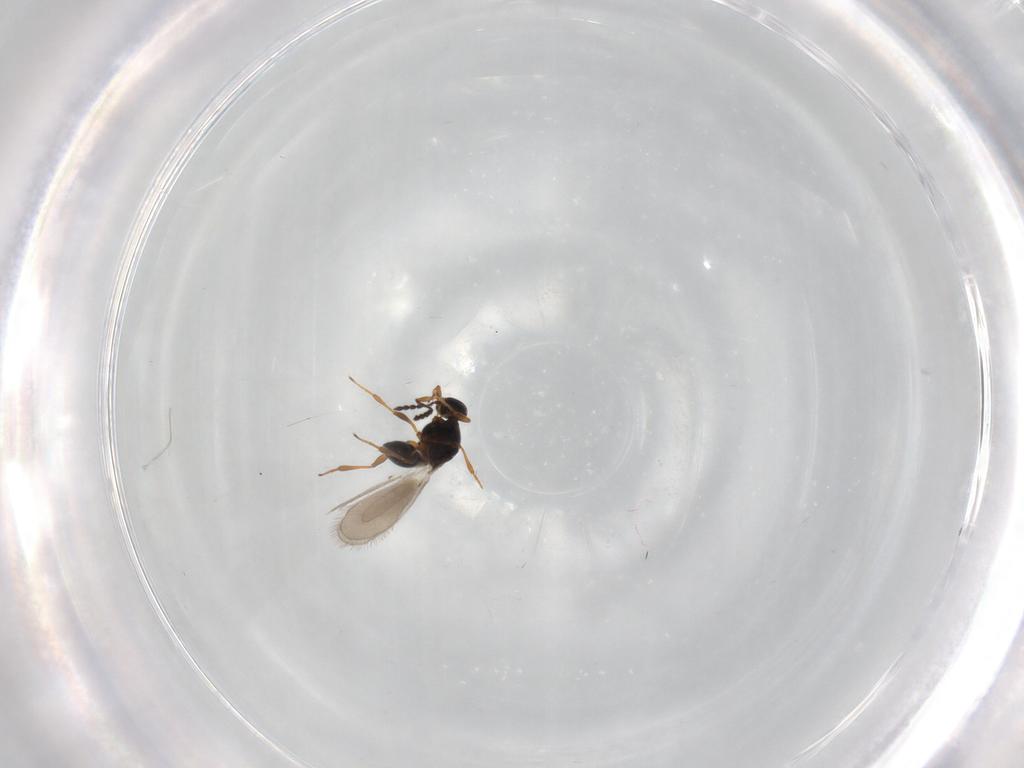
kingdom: Animalia
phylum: Arthropoda
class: Insecta
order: Hymenoptera
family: Platygastridae
